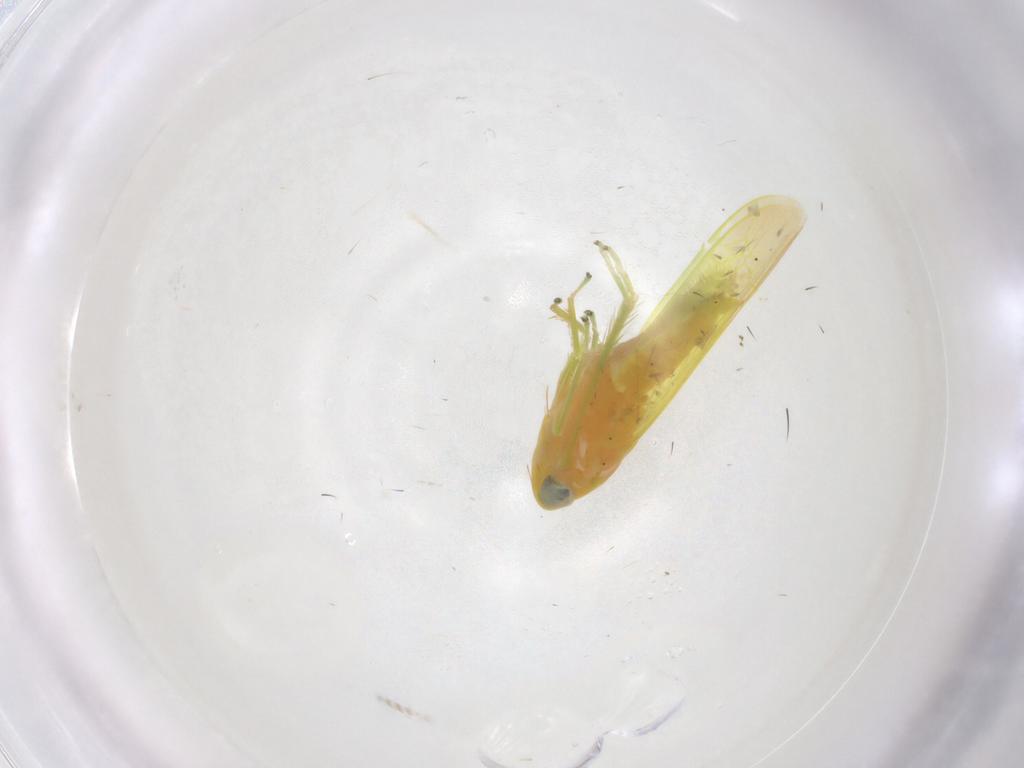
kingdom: Animalia
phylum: Arthropoda
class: Insecta
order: Hemiptera
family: Cicadellidae
